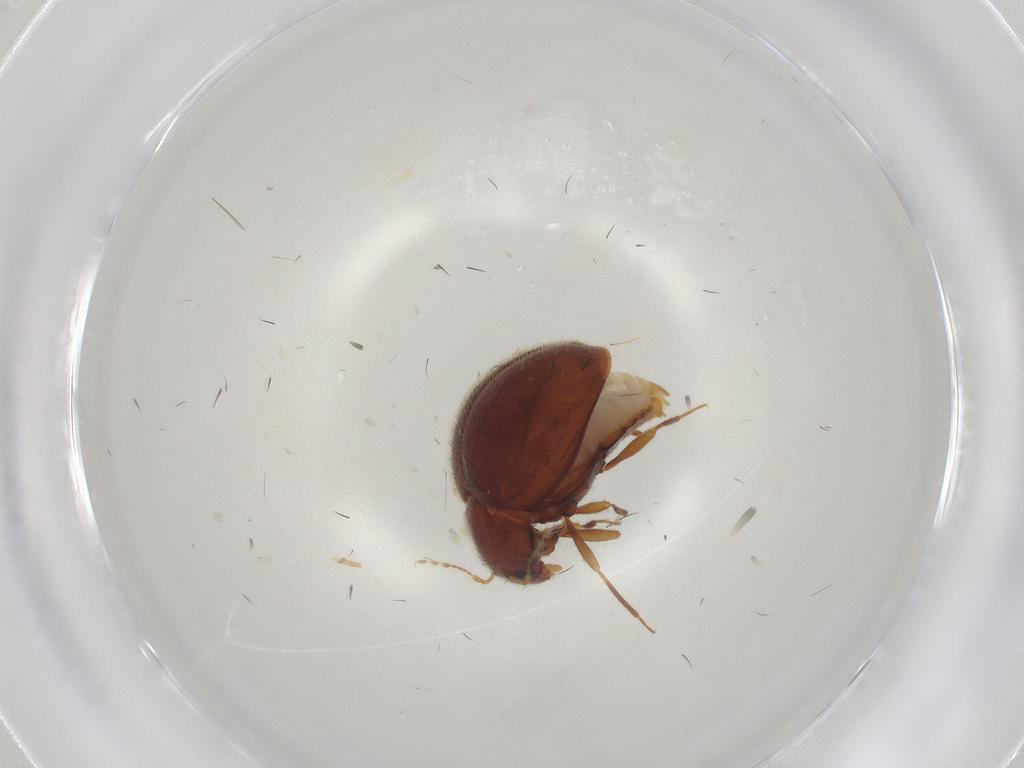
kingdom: Animalia
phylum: Arthropoda
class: Insecta
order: Coleoptera
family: Anamorphidae
